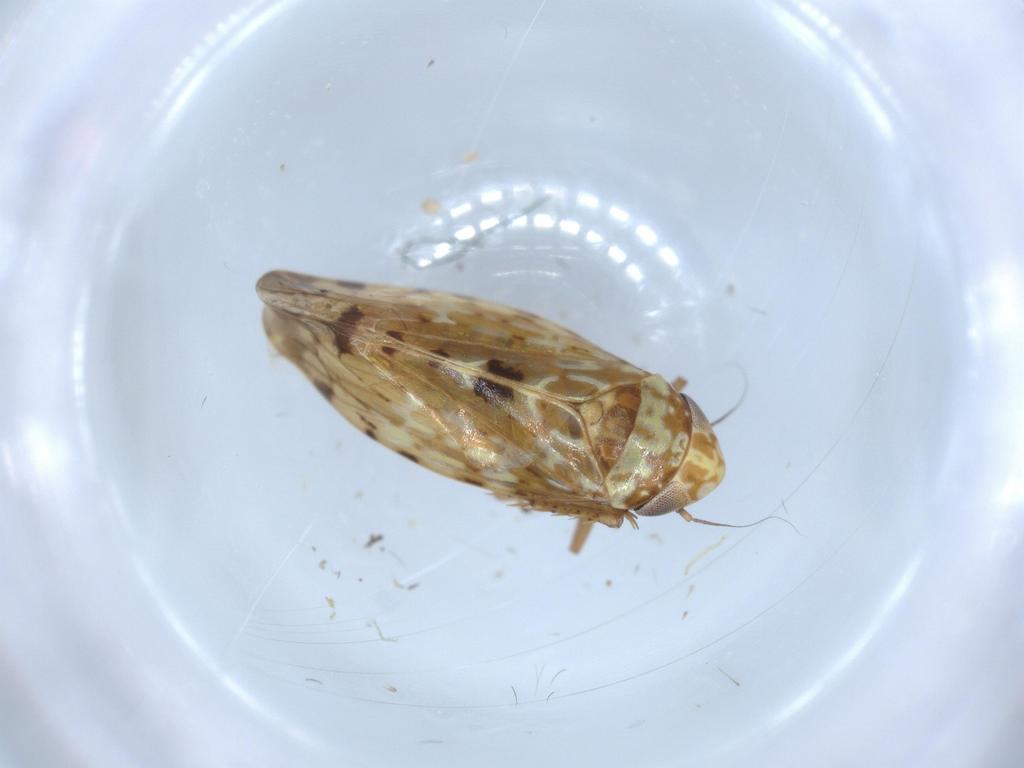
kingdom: Animalia
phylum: Arthropoda
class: Insecta
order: Hemiptera
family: Cicadellidae
